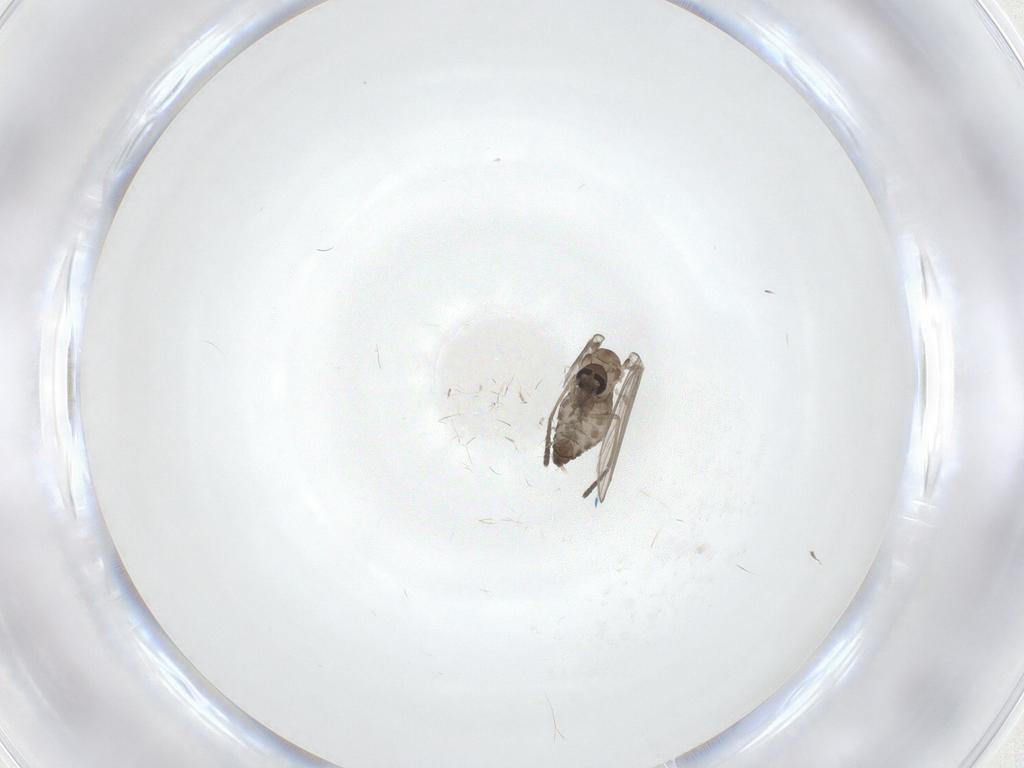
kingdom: Animalia
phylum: Arthropoda
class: Insecta
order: Diptera
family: Psychodidae
